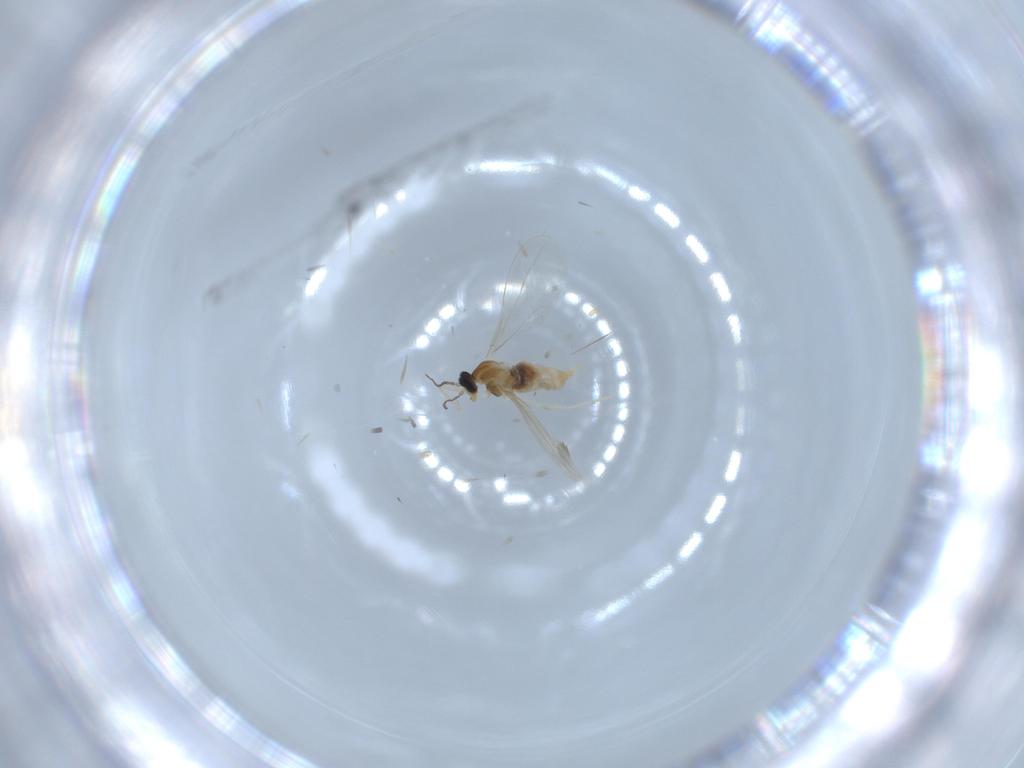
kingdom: Animalia
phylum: Arthropoda
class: Insecta
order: Diptera
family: Cecidomyiidae
